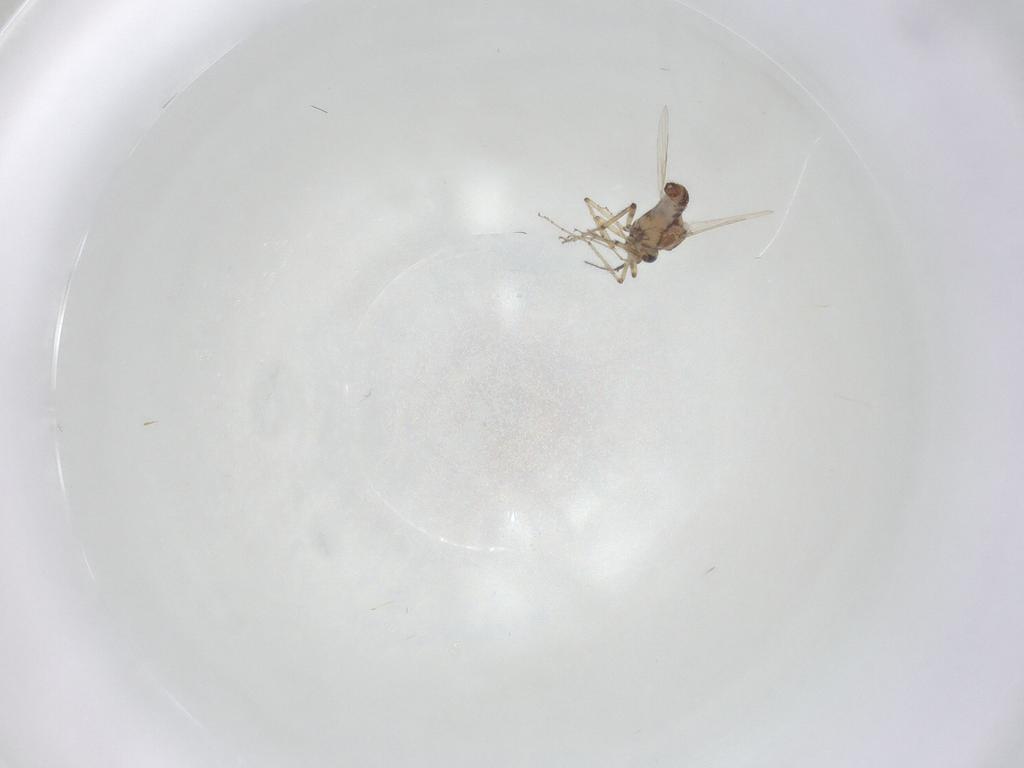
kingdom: Animalia
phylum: Arthropoda
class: Insecta
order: Diptera
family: Ceratopogonidae
